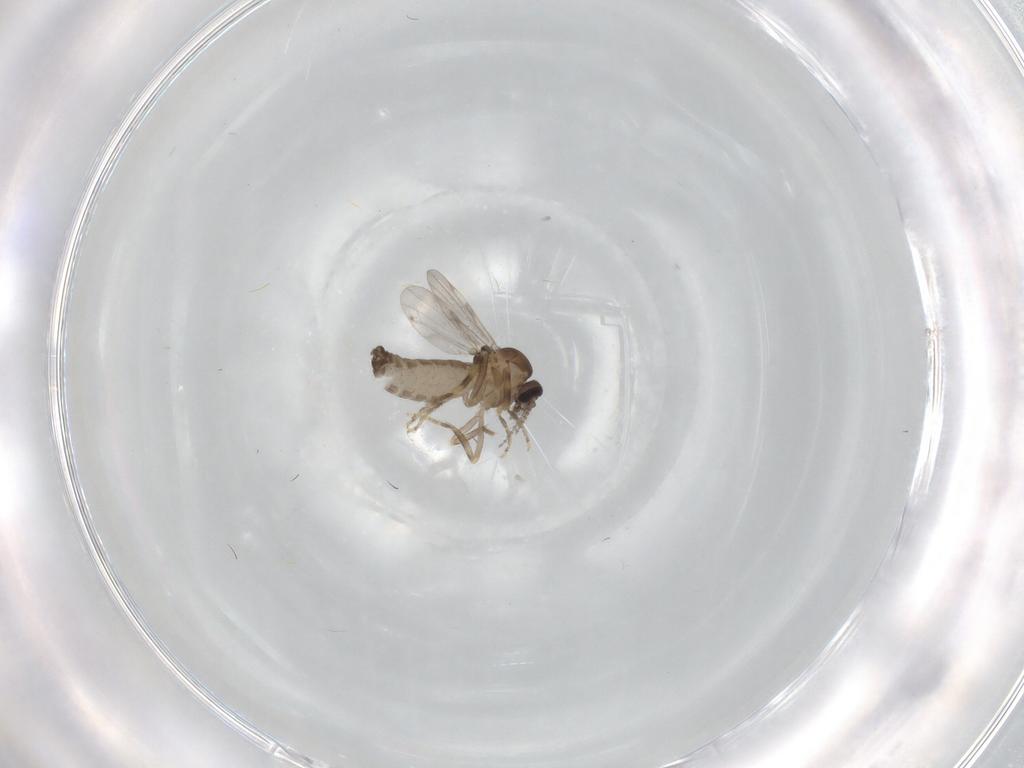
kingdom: Animalia
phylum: Arthropoda
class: Insecta
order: Diptera
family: Ceratopogonidae
